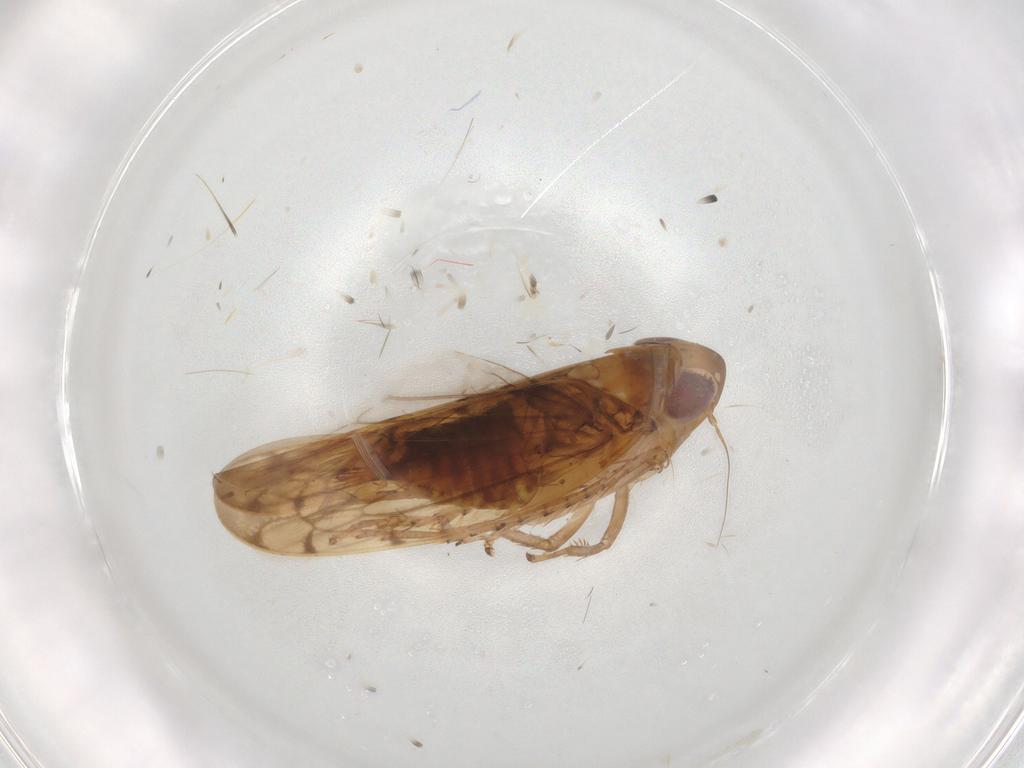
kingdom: Animalia
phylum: Arthropoda
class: Insecta
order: Hemiptera
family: Cicadellidae
